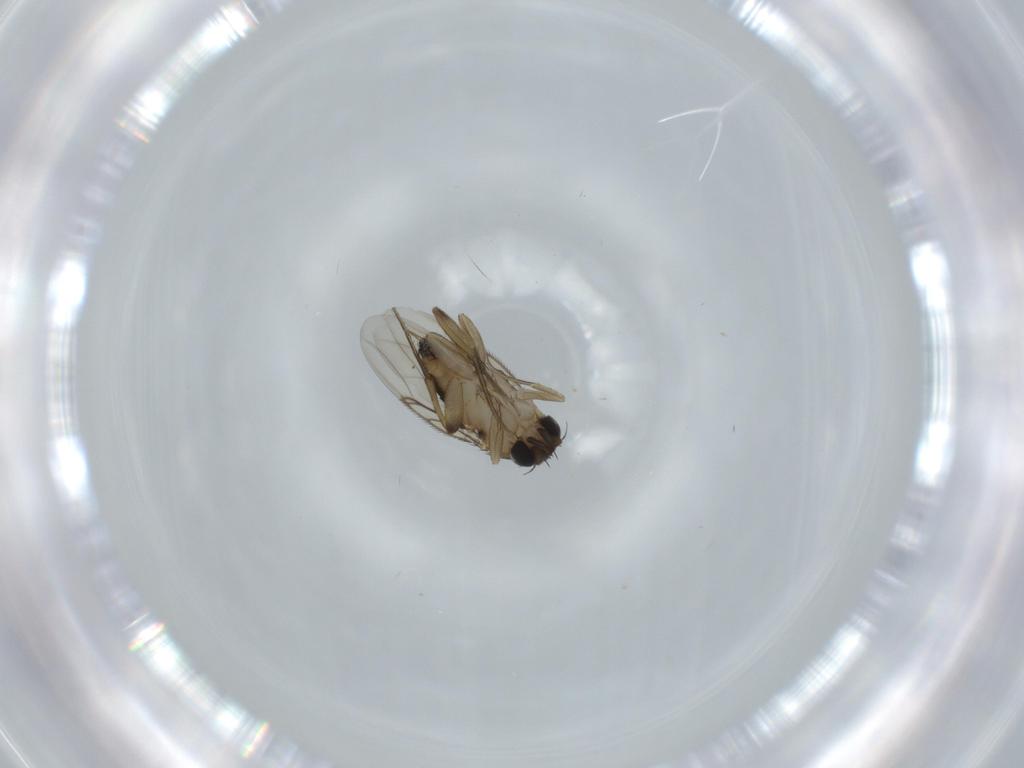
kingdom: Animalia
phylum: Arthropoda
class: Insecta
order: Diptera
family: Phoridae
